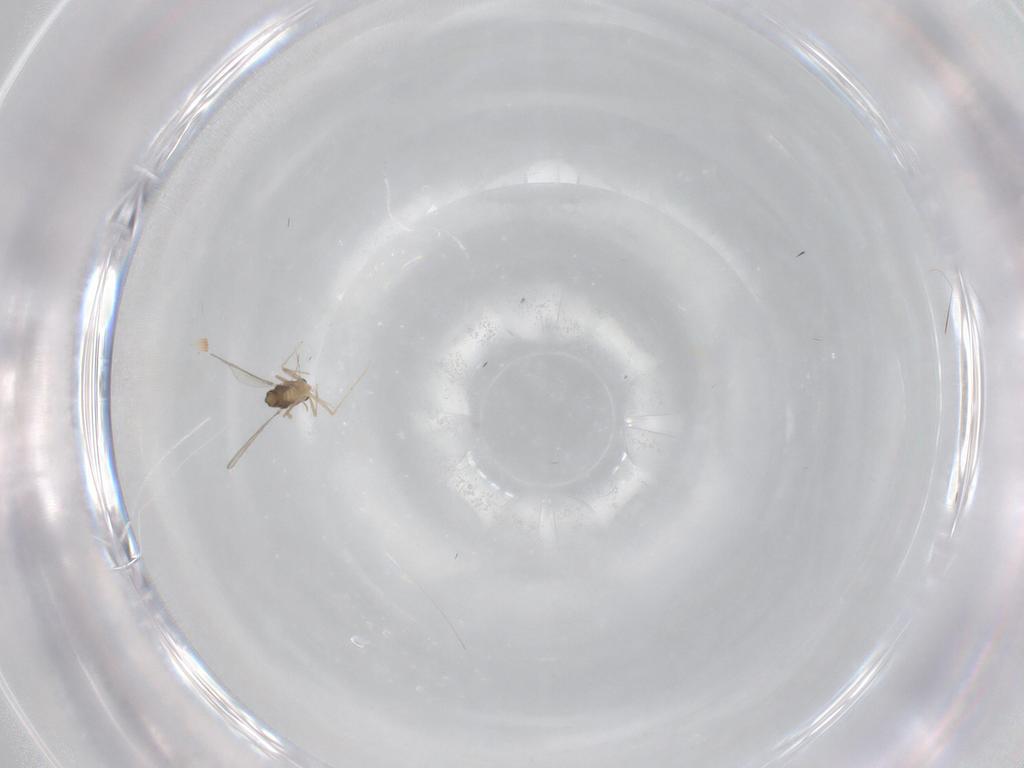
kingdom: Animalia
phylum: Arthropoda
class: Insecta
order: Diptera
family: Chironomidae
